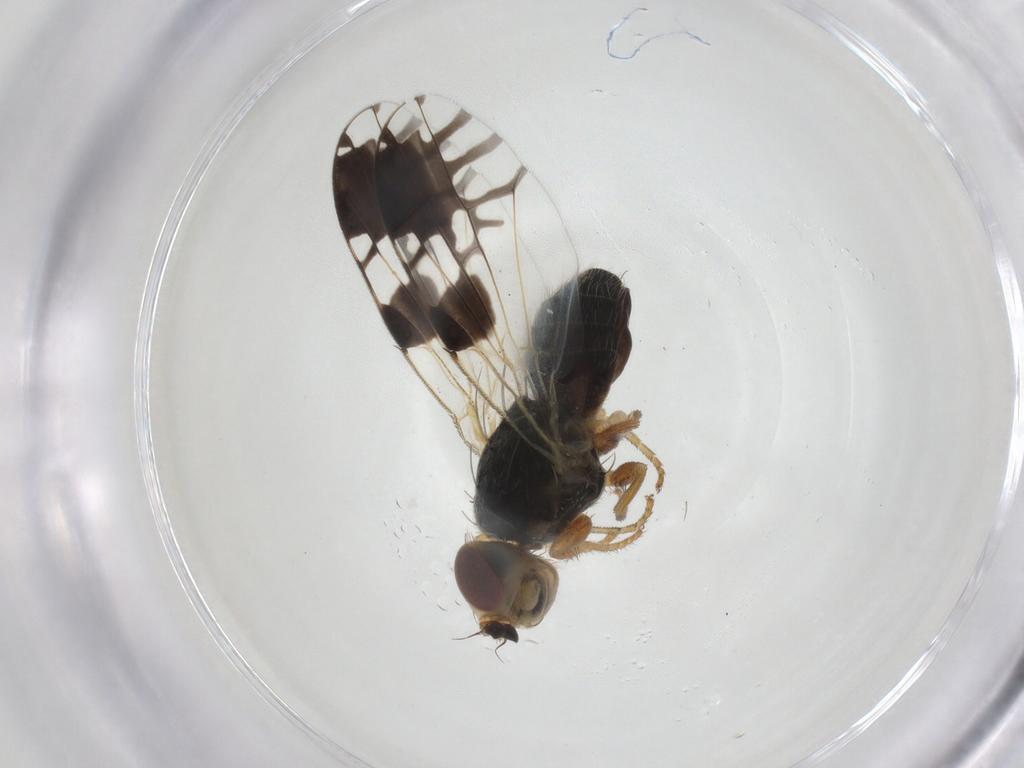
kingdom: Animalia
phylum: Arthropoda
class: Insecta
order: Diptera
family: Tephritidae
